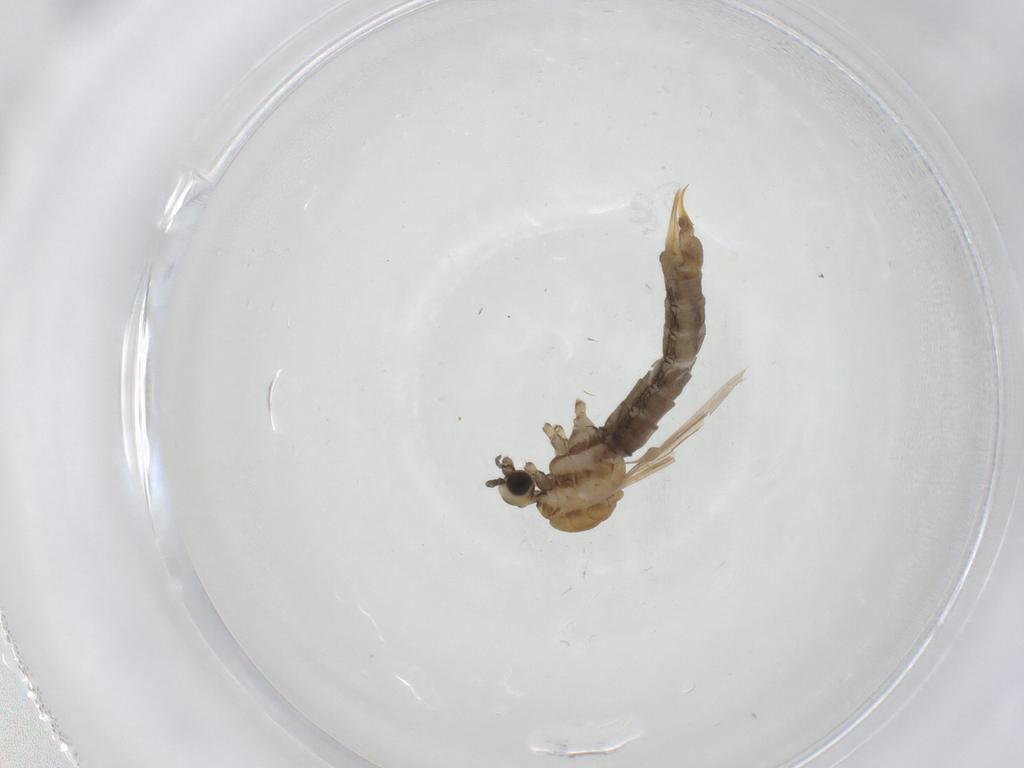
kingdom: Animalia
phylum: Arthropoda
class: Insecta
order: Diptera
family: Limoniidae
